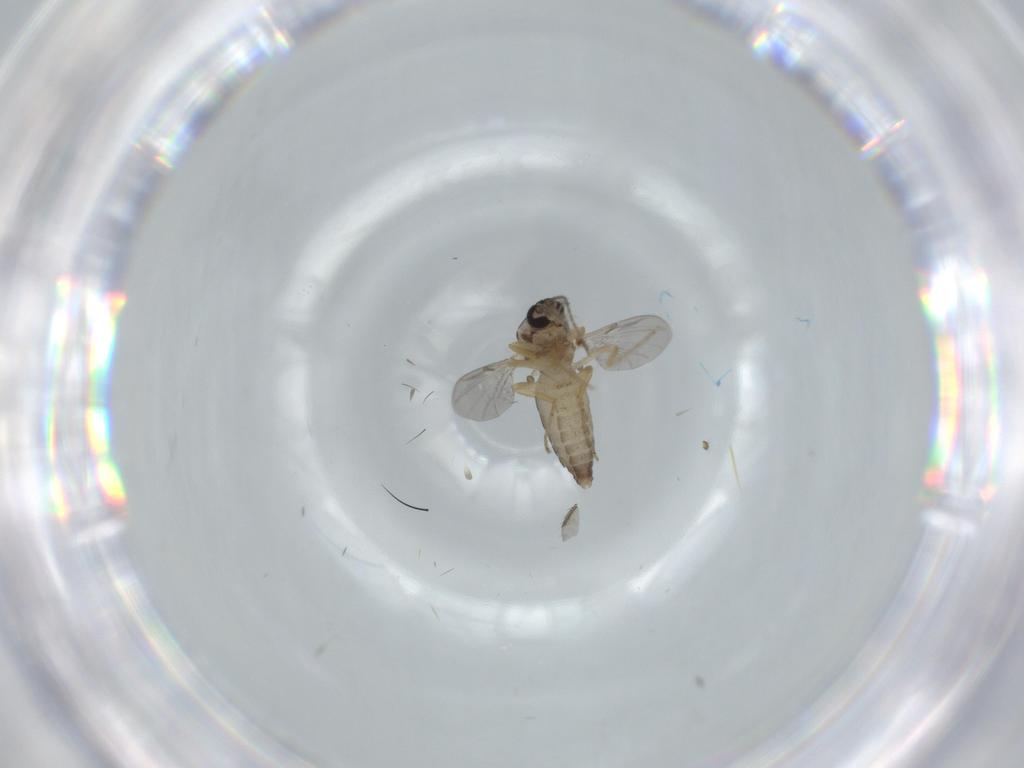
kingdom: Animalia
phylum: Arthropoda
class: Insecta
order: Diptera
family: Ceratopogonidae
